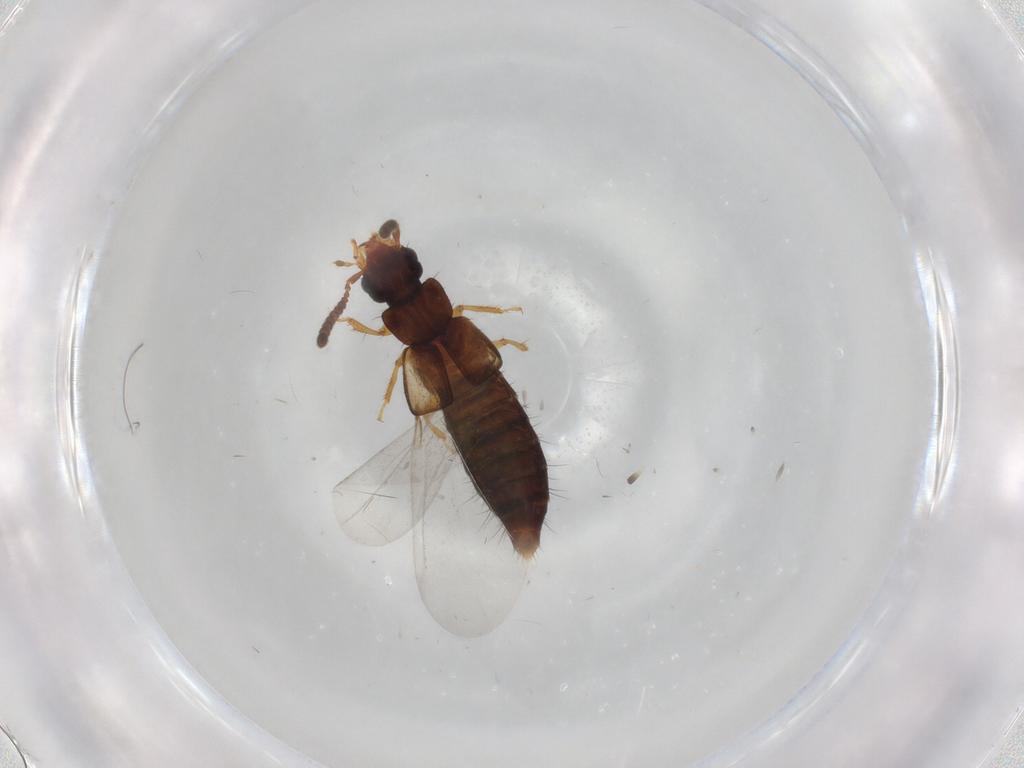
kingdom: Animalia
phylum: Arthropoda
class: Insecta
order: Coleoptera
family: Staphylinidae
